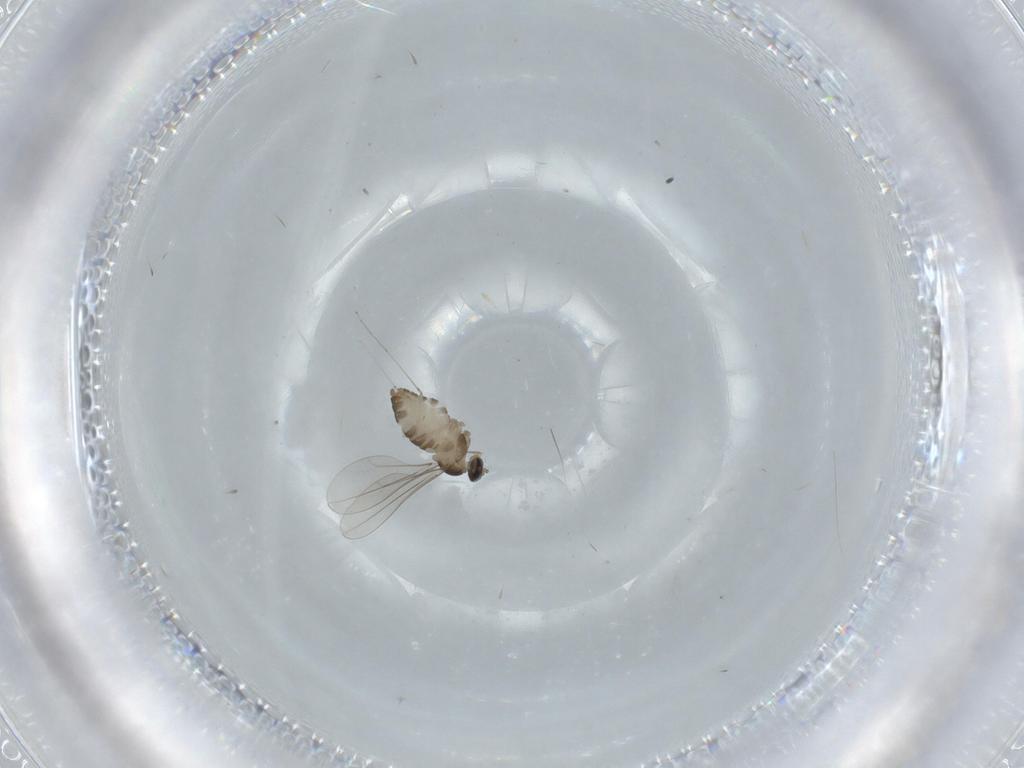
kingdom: Animalia
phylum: Arthropoda
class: Insecta
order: Diptera
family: Dolichopodidae
